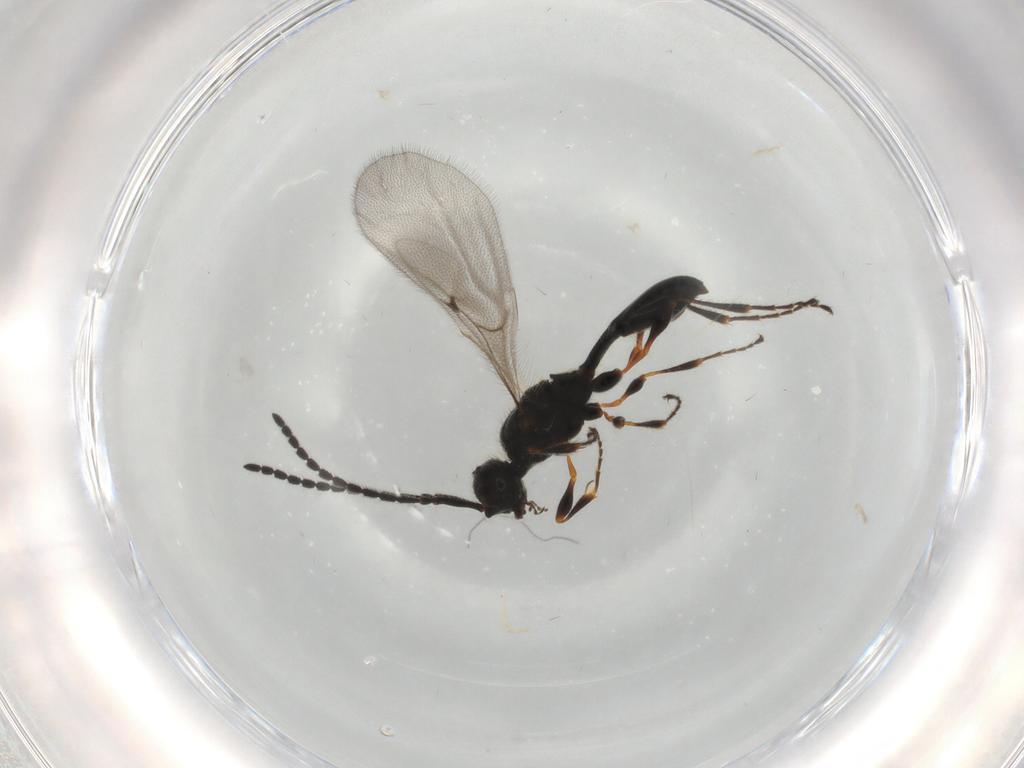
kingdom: Animalia
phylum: Arthropoda
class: Insecta
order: Hymenoptera
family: Diapriidae
